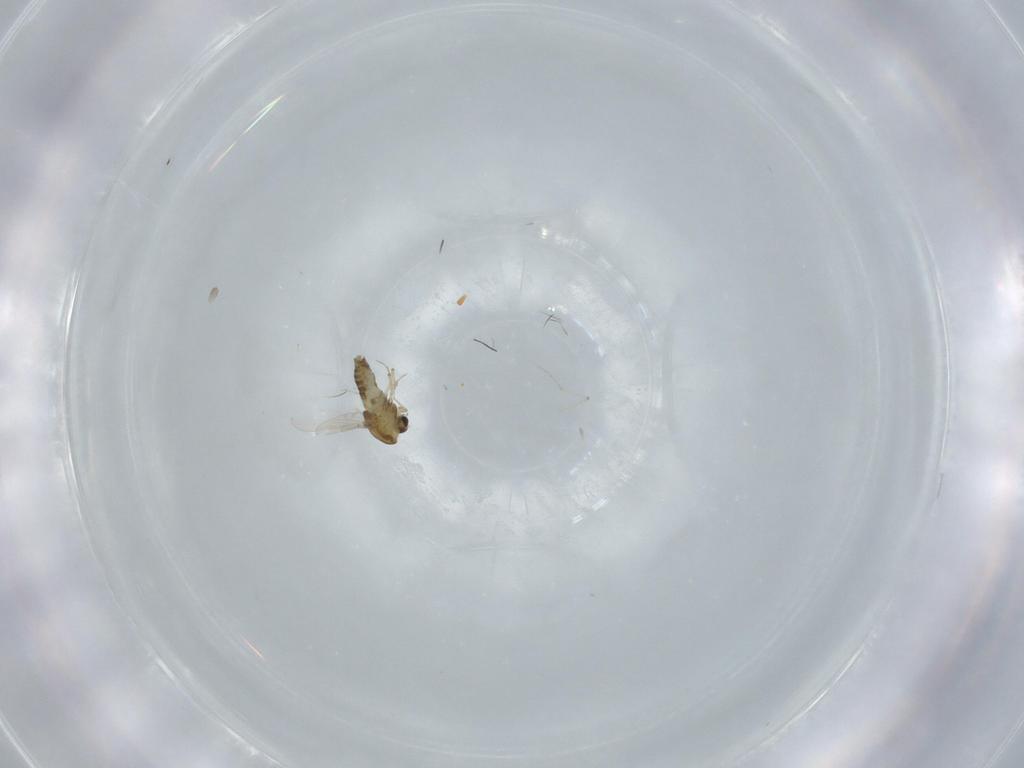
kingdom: Animalia
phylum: Arthropoda
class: Insecta
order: Diptera
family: Chironomidae
